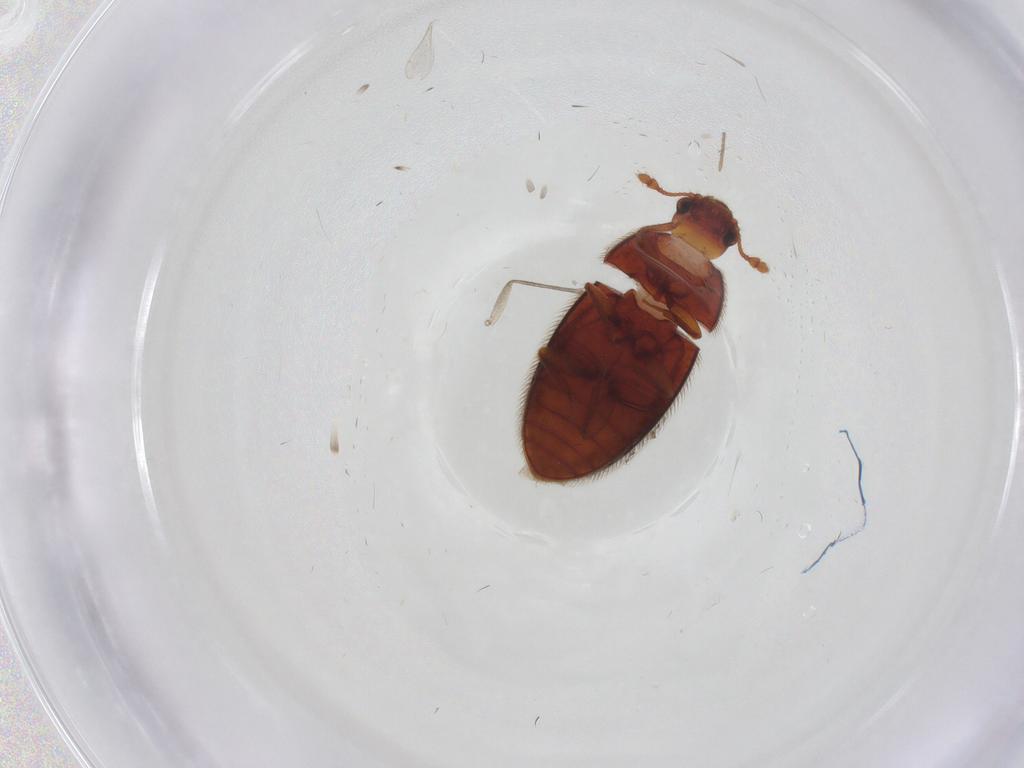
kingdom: Animalia
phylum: Arthropoda
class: Insecta
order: Coleoptera
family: Biphyllidae
